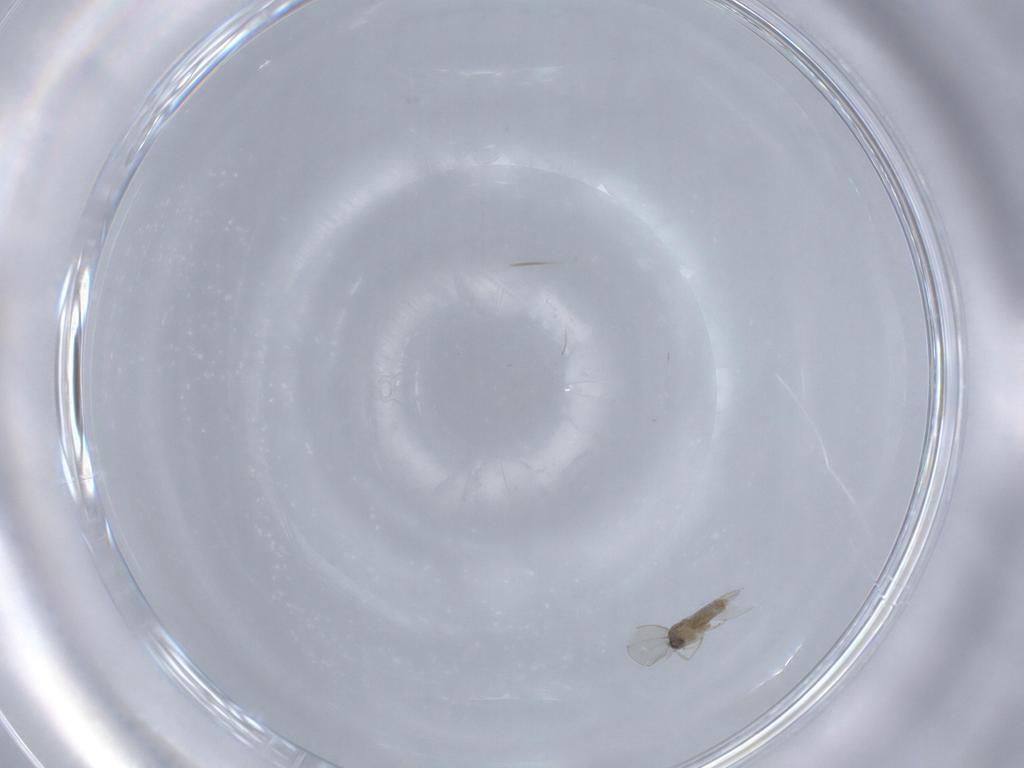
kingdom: Animalia
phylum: Arthropoda
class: Insecta
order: Diptera
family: Cecidomyiidae
